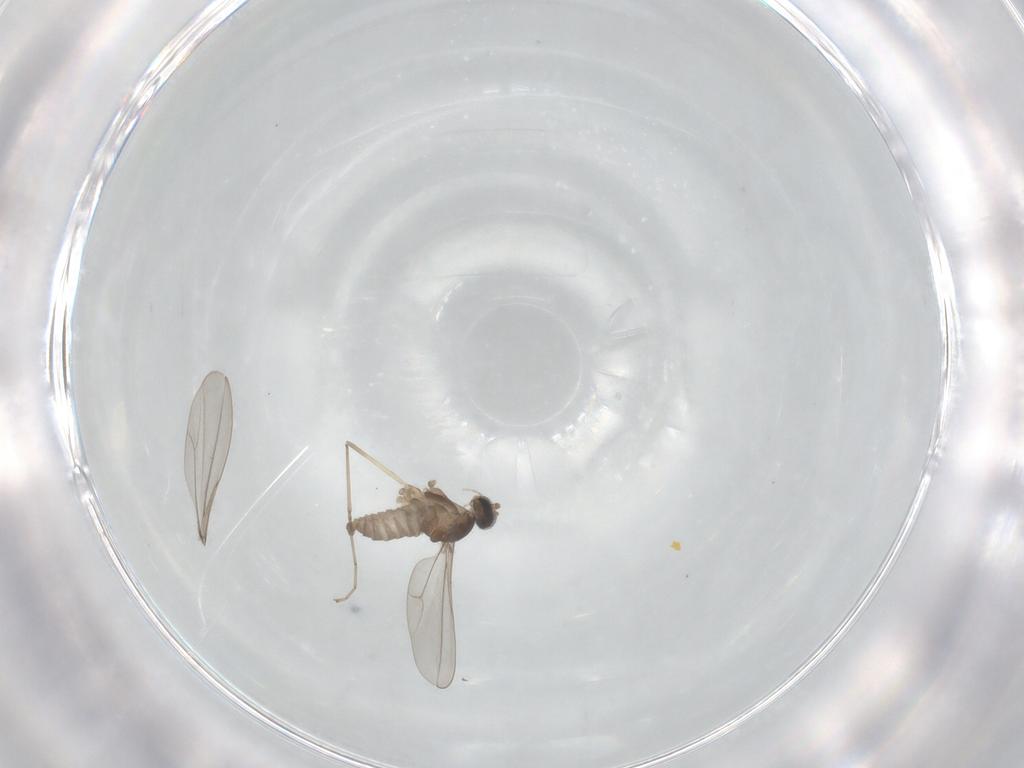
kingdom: Animalia
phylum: Arthropoda
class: Insecta
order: Diptera
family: Cecidomyiidae
